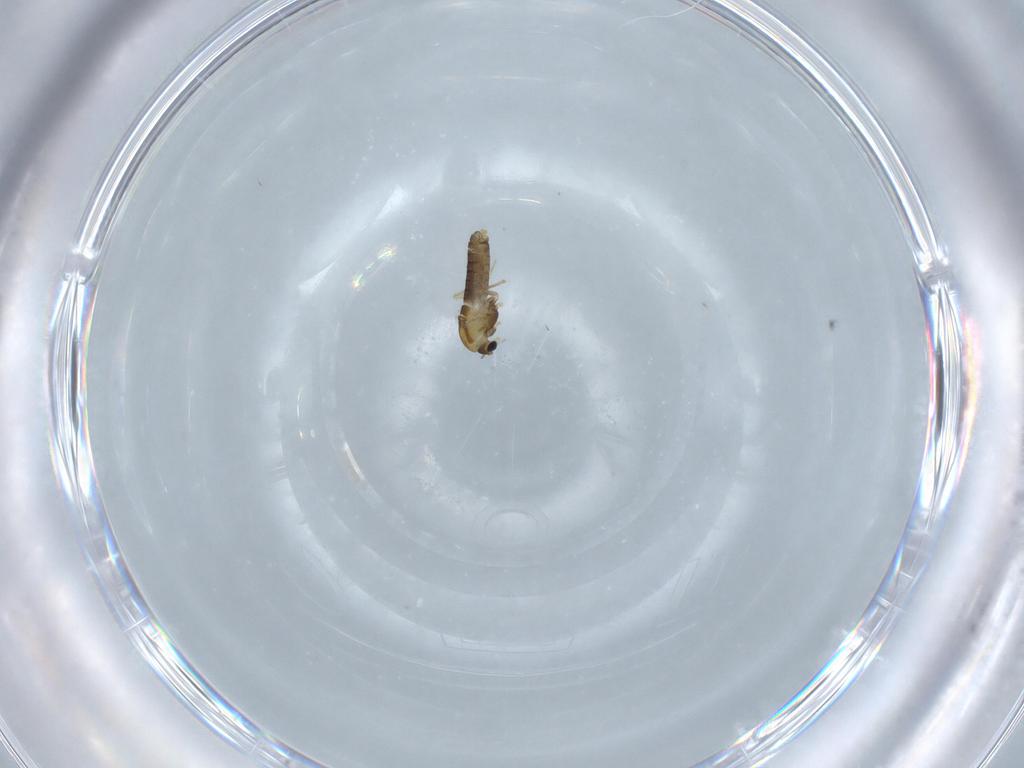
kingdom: Animalia
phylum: Arthropoda
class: Insecta
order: Diptera
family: Chironomidae
